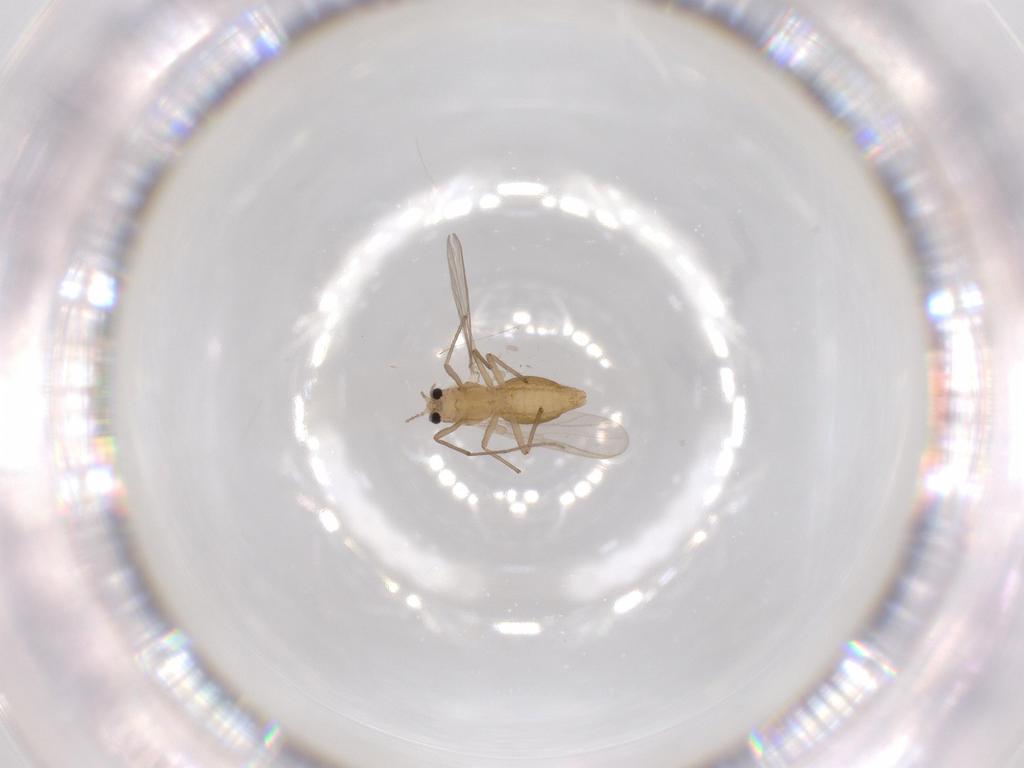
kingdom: Animalia
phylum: Arthropoda
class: Insecta
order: Diptera
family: Chironomidae
